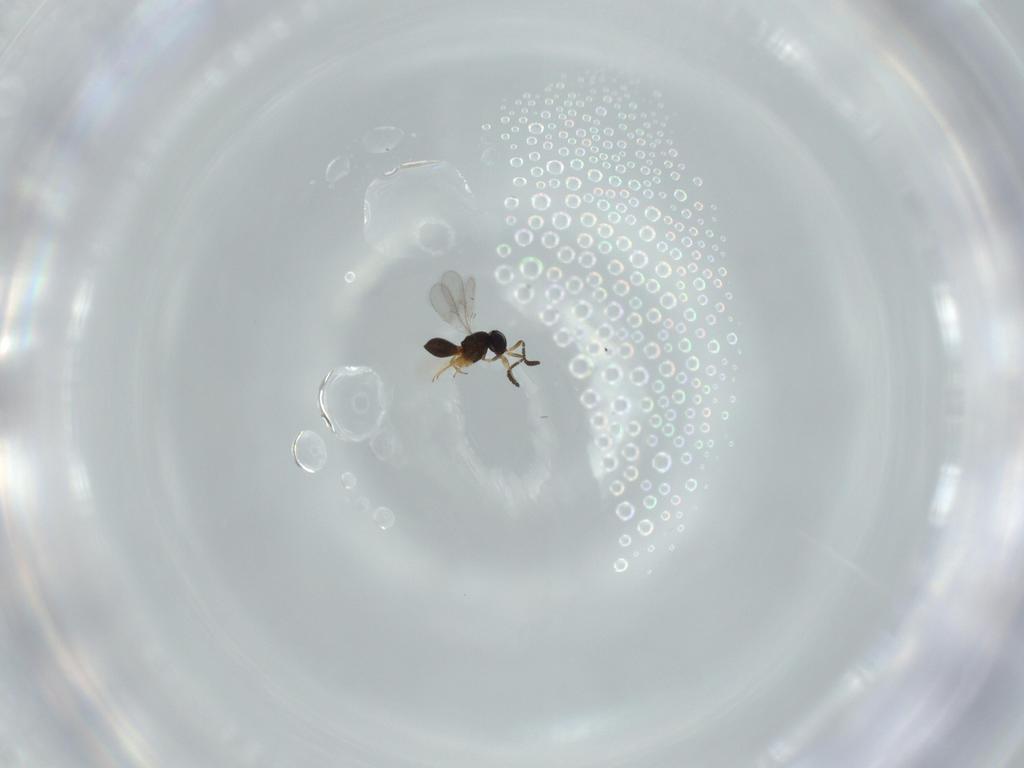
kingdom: Animalia
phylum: Arthropoda
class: Insecta
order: Hymenoptera
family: Scelionidae
